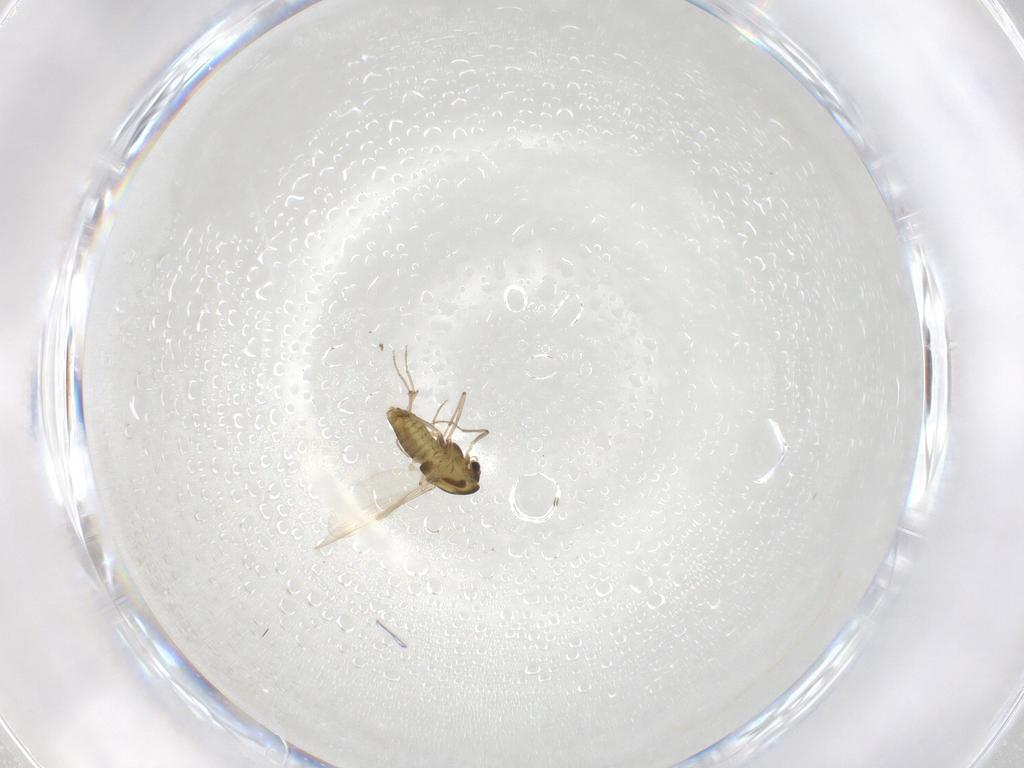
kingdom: Animalia
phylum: Arthropoda
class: Insecta
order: Diptera
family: Chironomidae
